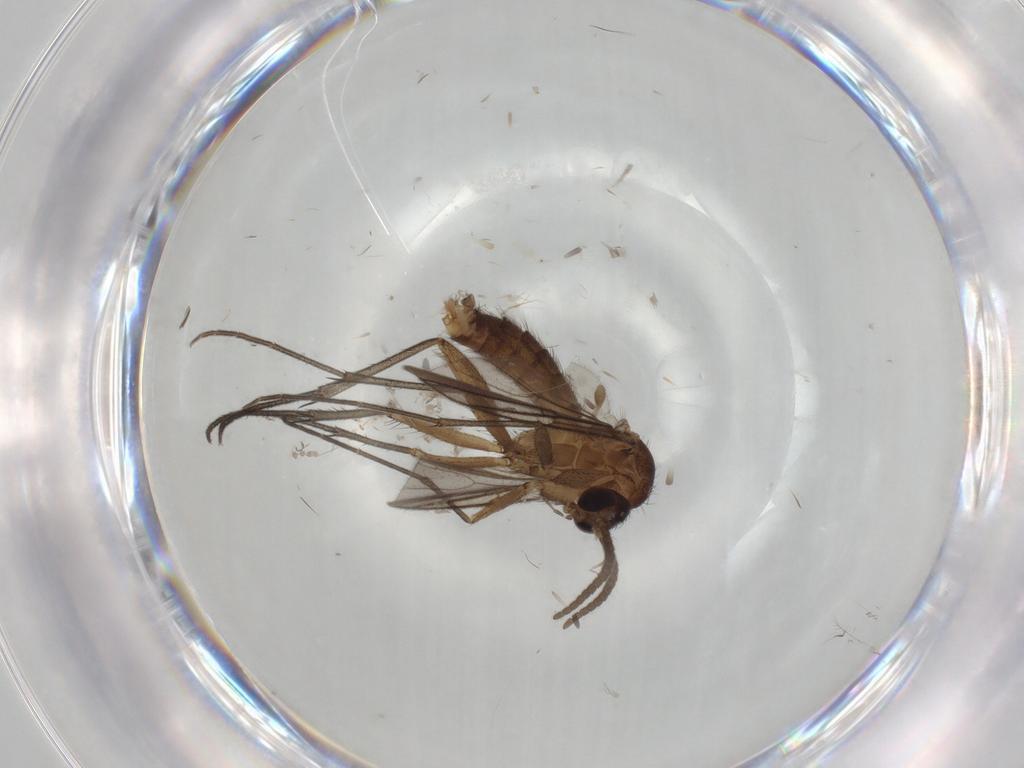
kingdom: Animalia
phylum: Arthropoda
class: Insecta
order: Diptera
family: Mycetophilidae
